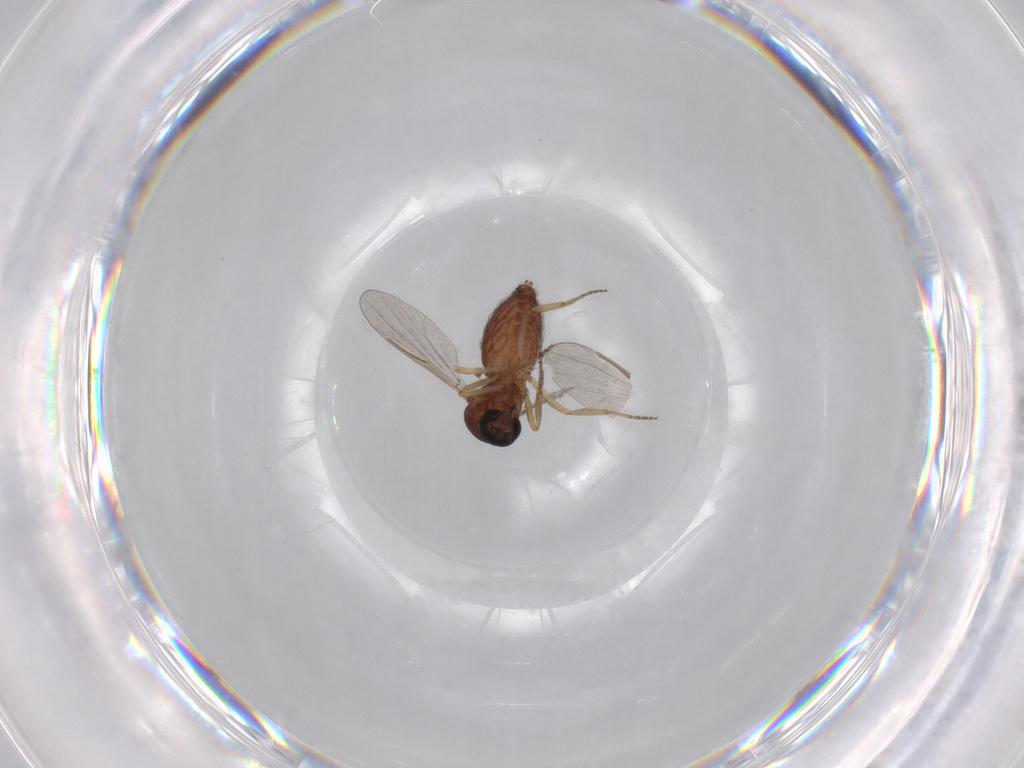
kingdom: Animalia
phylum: Arthropoda
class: Insecta
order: Diptera
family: Ceratopogonidae
